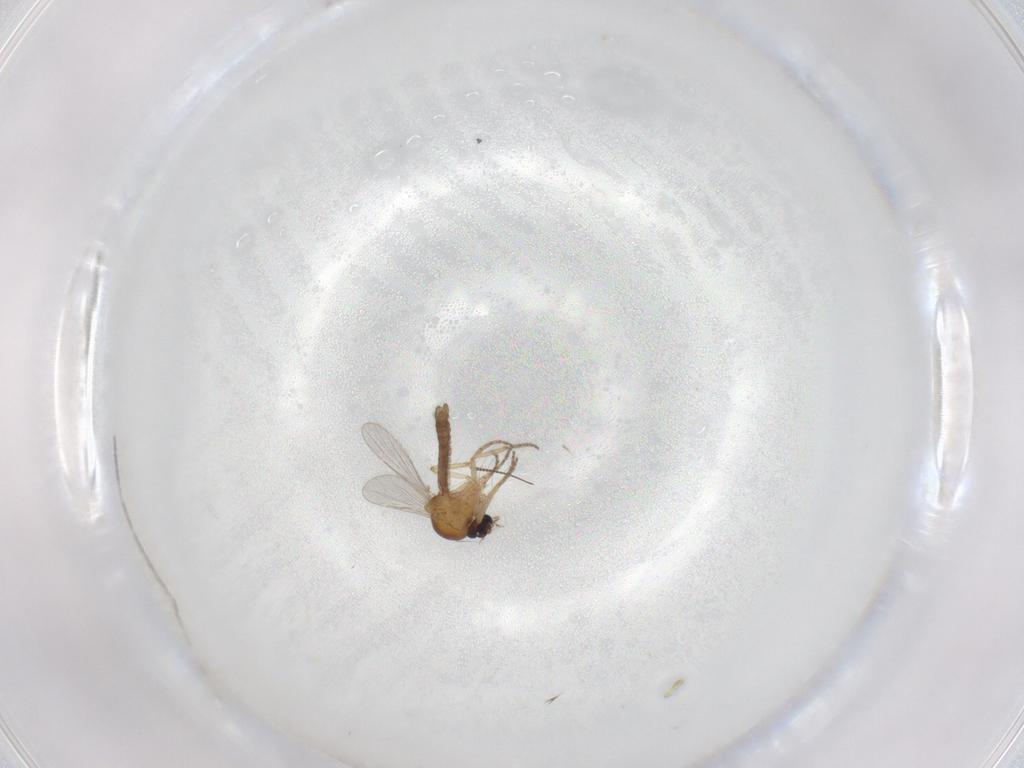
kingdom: Animalia
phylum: Arthropoda
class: Insecta
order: Diptera
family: Chironomidae
